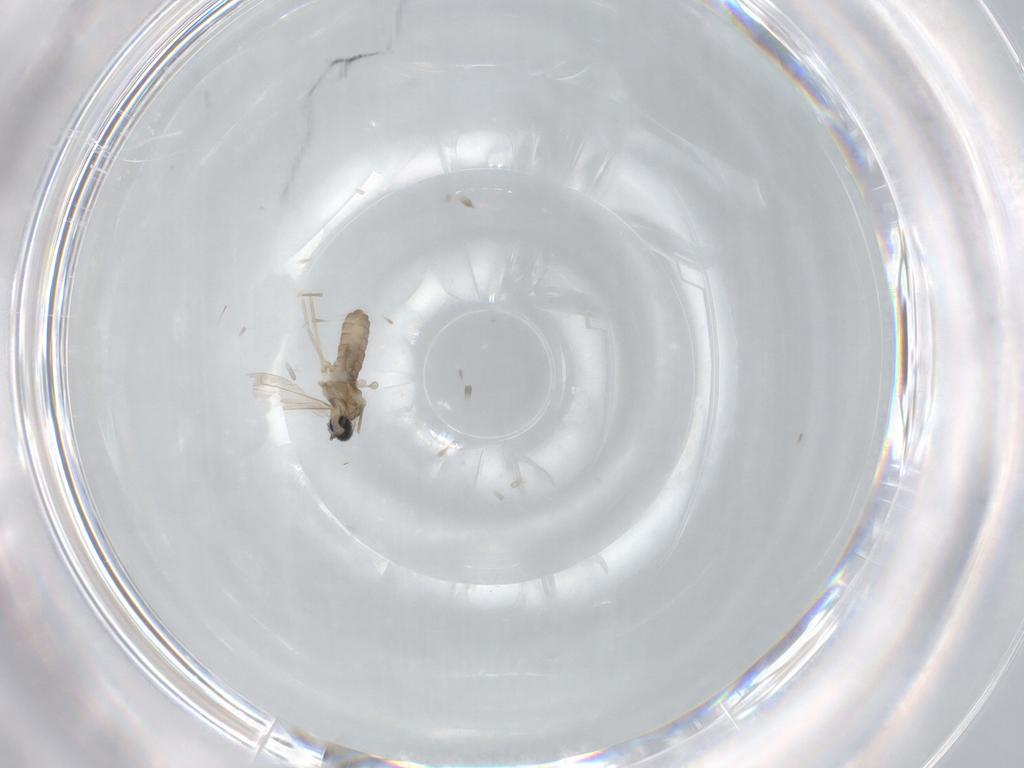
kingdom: Animalia
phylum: Arthropoda
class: Insecta
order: Diptera
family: Cecidomyiidae
